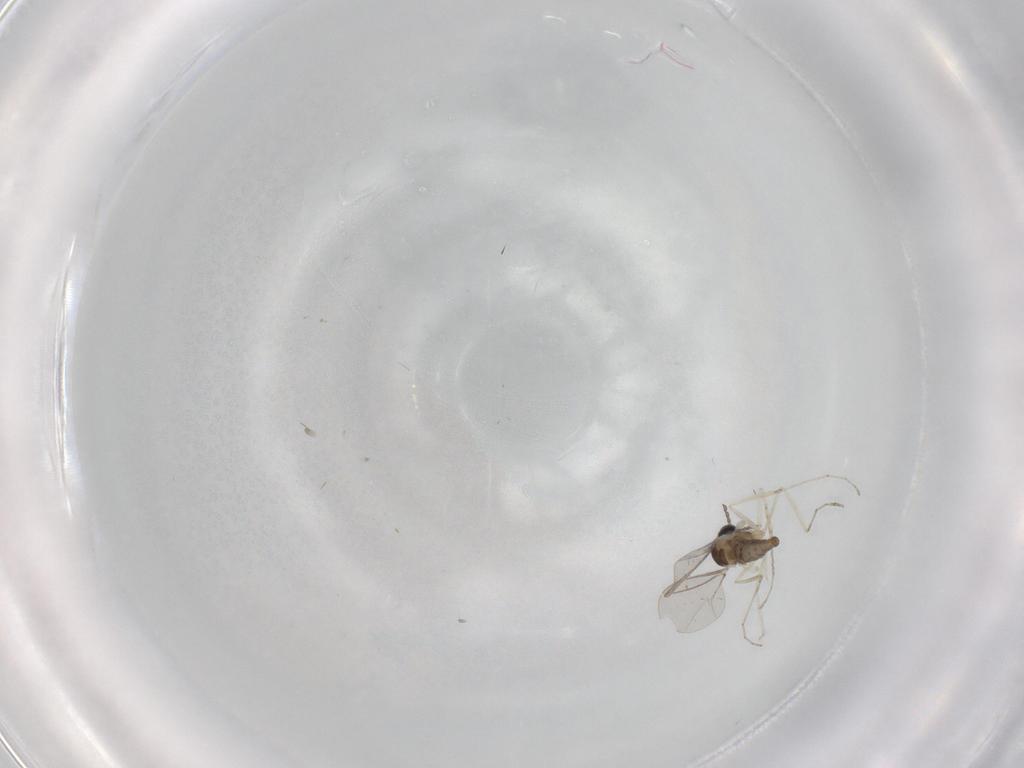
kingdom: Animalia
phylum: Arthropoda
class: Insecta
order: Diptera
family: Cecidomyiidae
